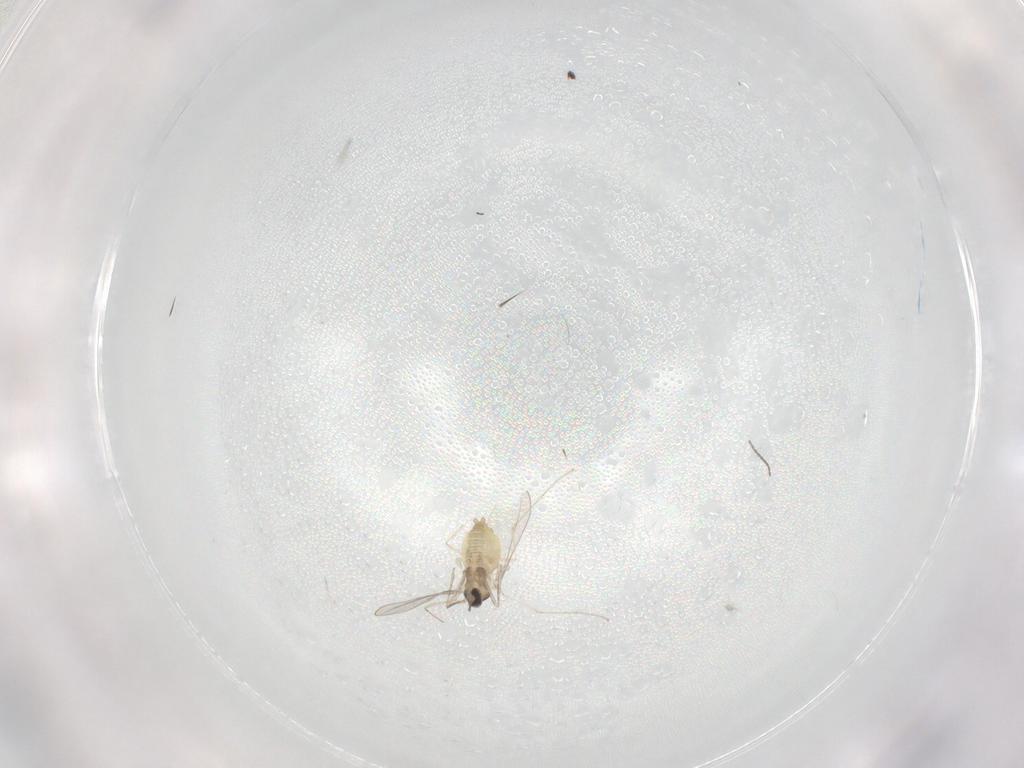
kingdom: Animalia
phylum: Arthropoda
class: Insecta
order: Diptera
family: Cecidomyiidae
